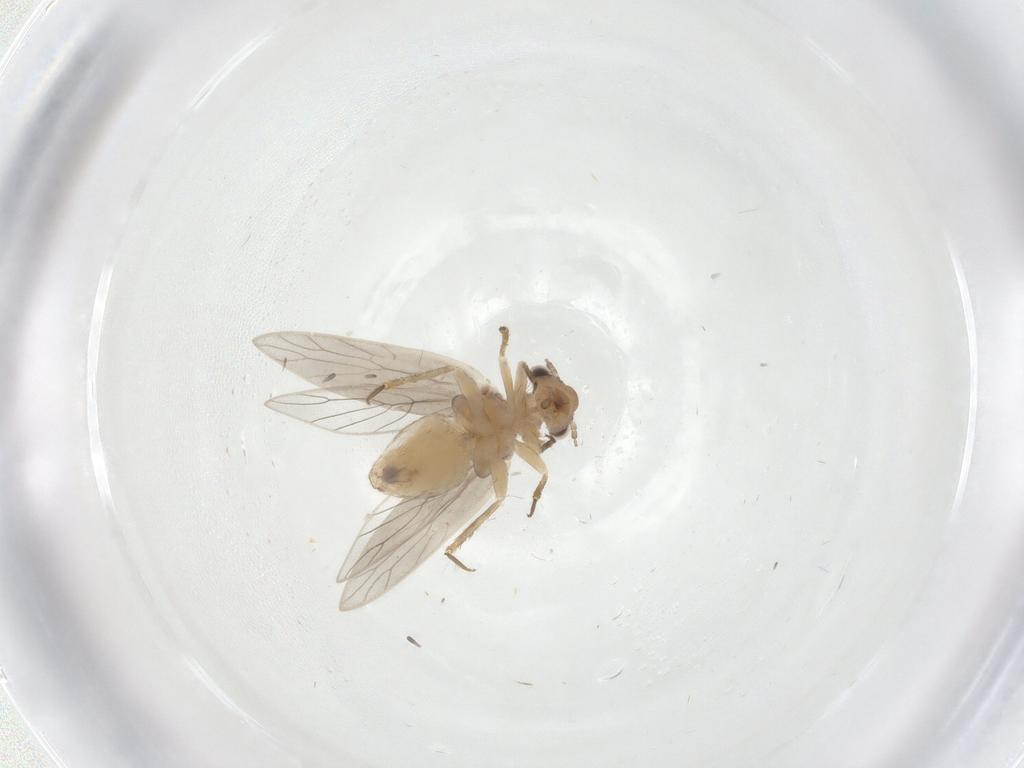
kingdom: Animalia
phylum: Arthropoda
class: Insecta
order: Psocodea
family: Lepidopsocidae
